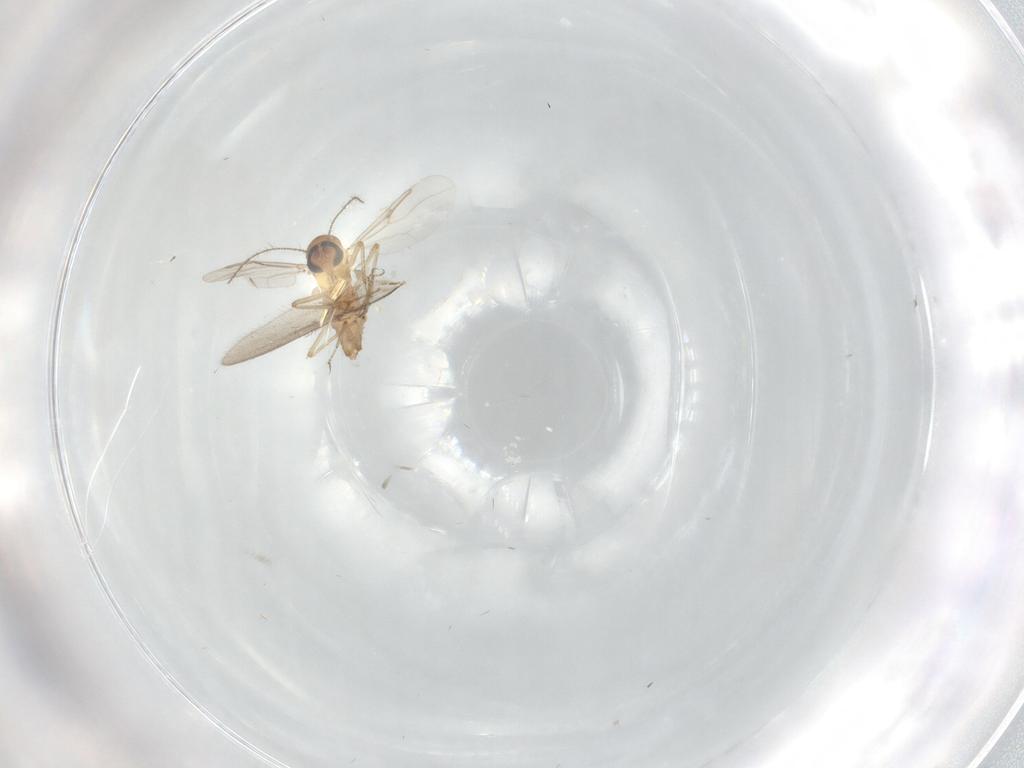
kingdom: Animalia
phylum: Arthropoda
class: Insecta
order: Diptera
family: Ceratopogonidae
